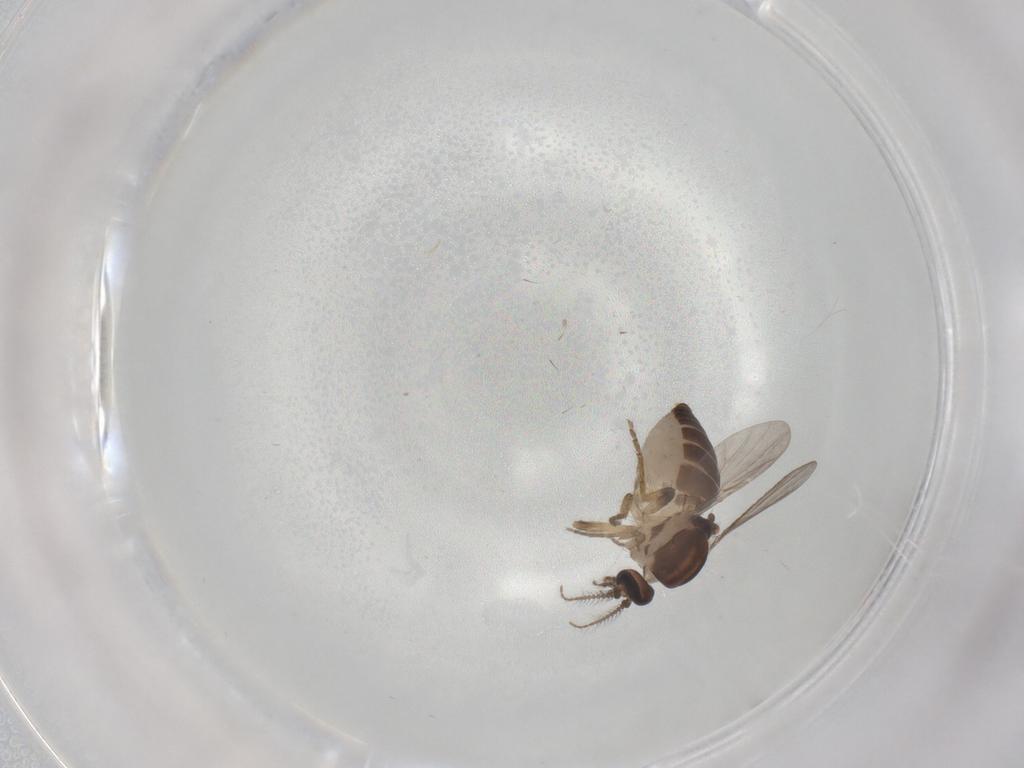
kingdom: Animalia
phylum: Arthropoda
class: Insecta
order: Diptera
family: Ceratopogonidae
